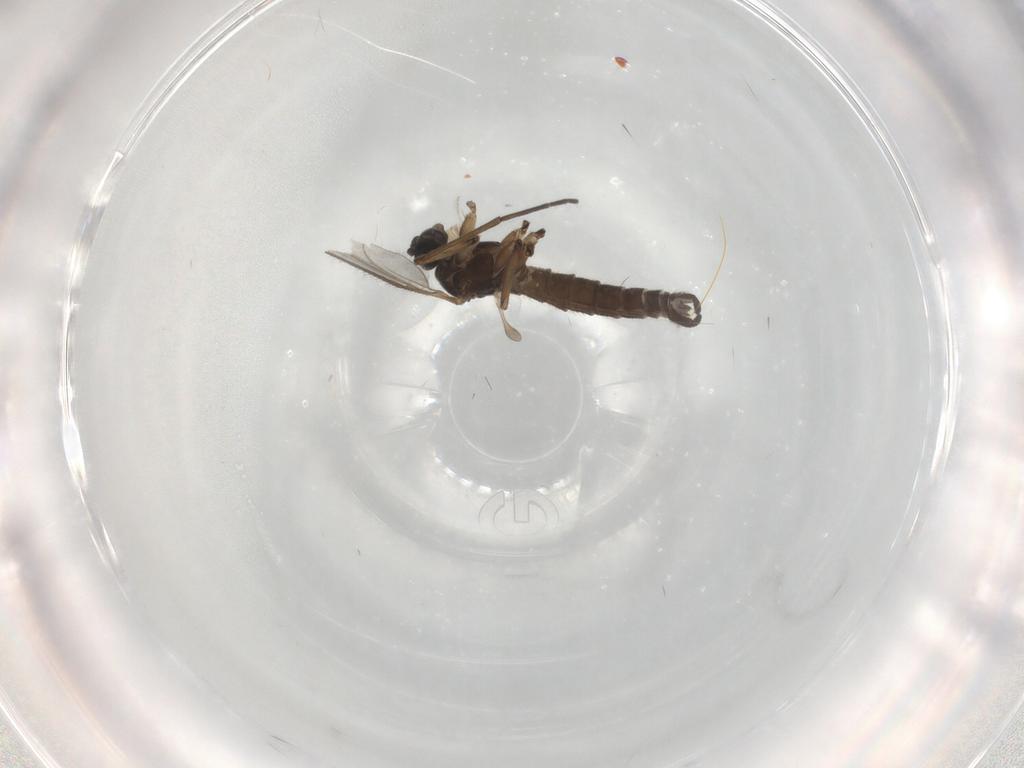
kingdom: Animalia
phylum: Arthropoda
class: Insecta
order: Diptera
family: Sciaridae
